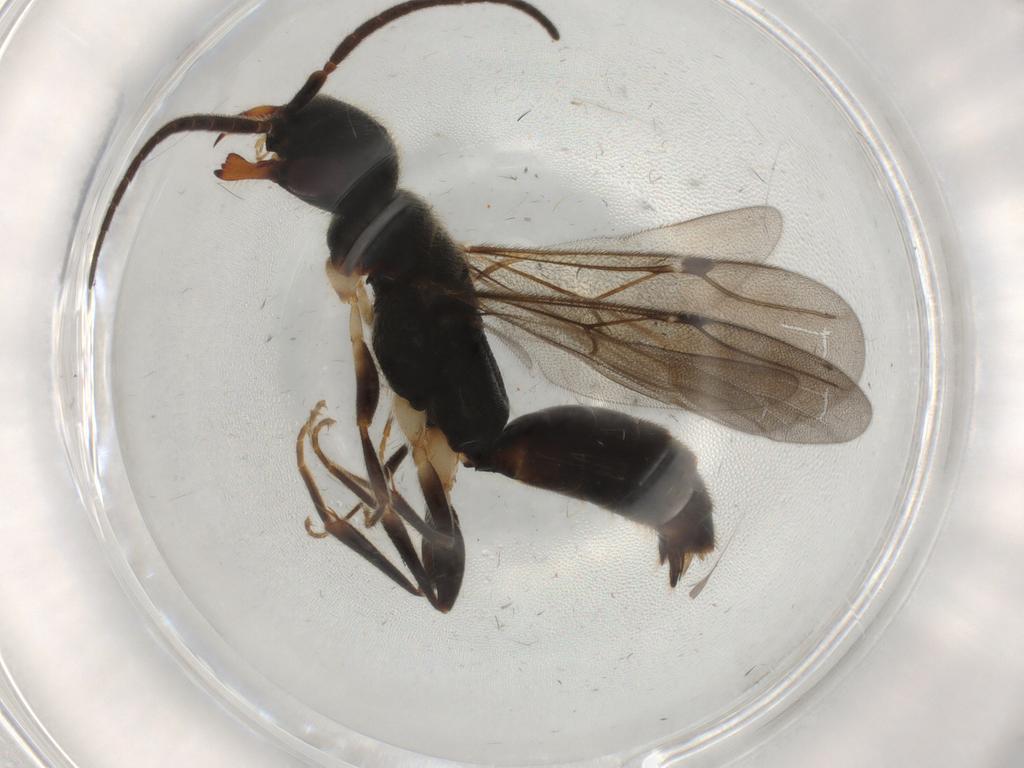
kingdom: Animalia
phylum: Arthropoda
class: Insecta
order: Hymenoptera
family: Bethylidae
